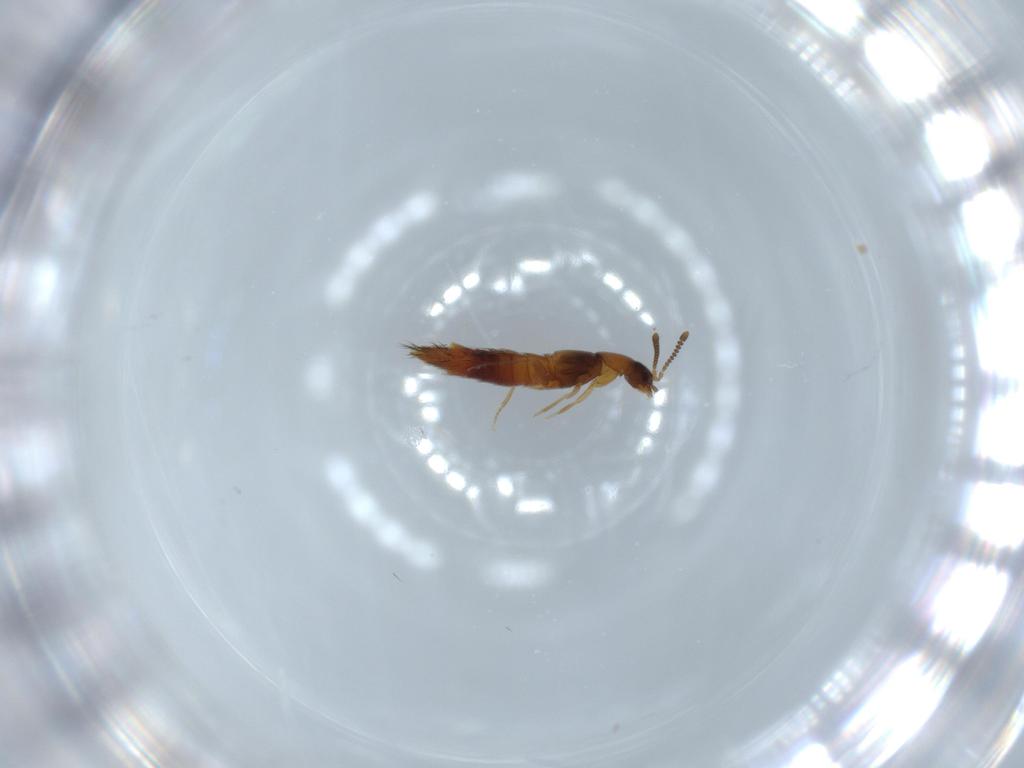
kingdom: Animalia
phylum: Arthropoda
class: Insecta
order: Coleoptera
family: Staphylinidae
